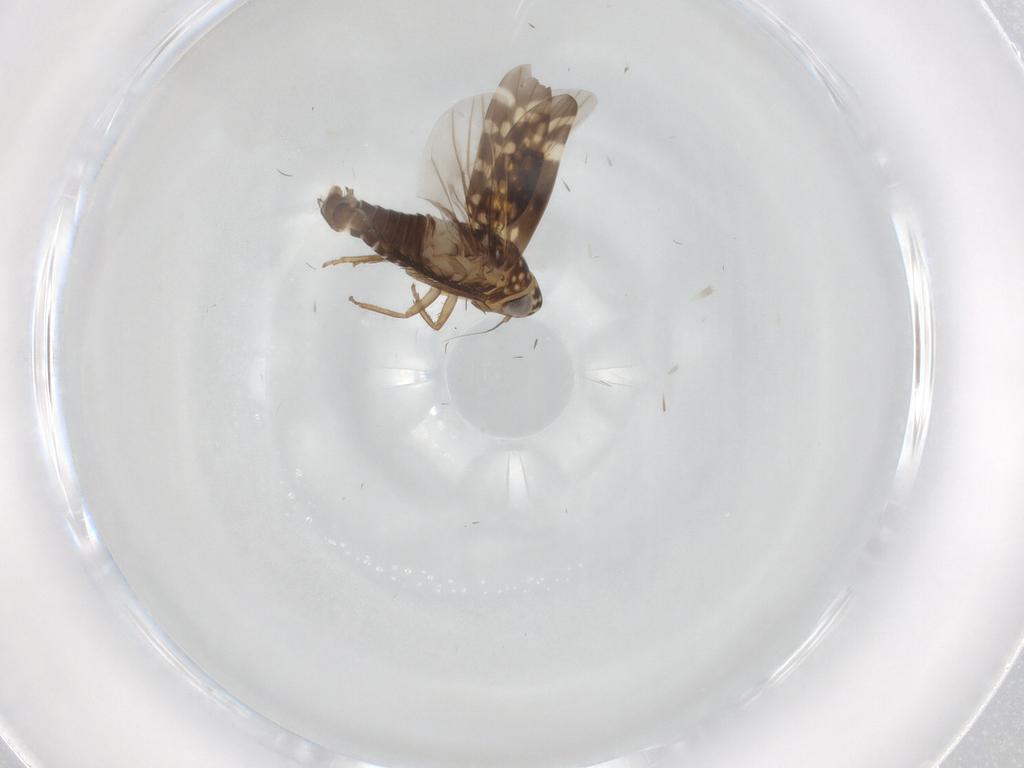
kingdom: Animalia
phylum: Arthropoda
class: Insecta
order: Hemiptera
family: Cicadellidae
